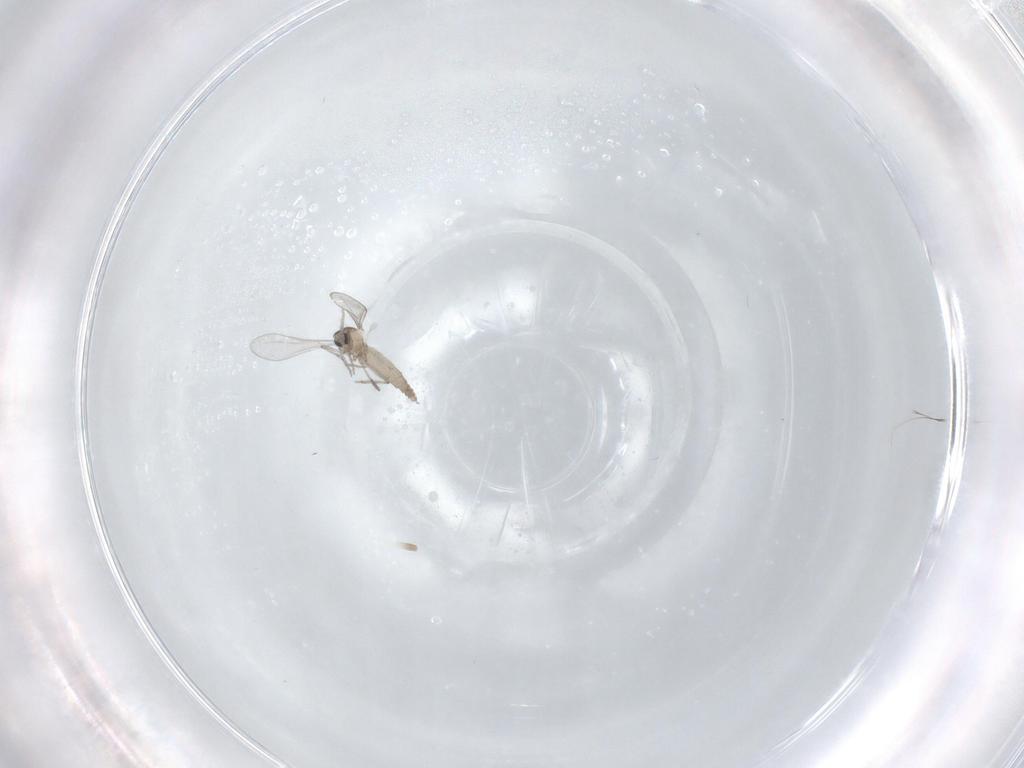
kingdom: Animalia
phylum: Arthropoda
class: Insecta
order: Diptera
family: Cecidomyiidae
